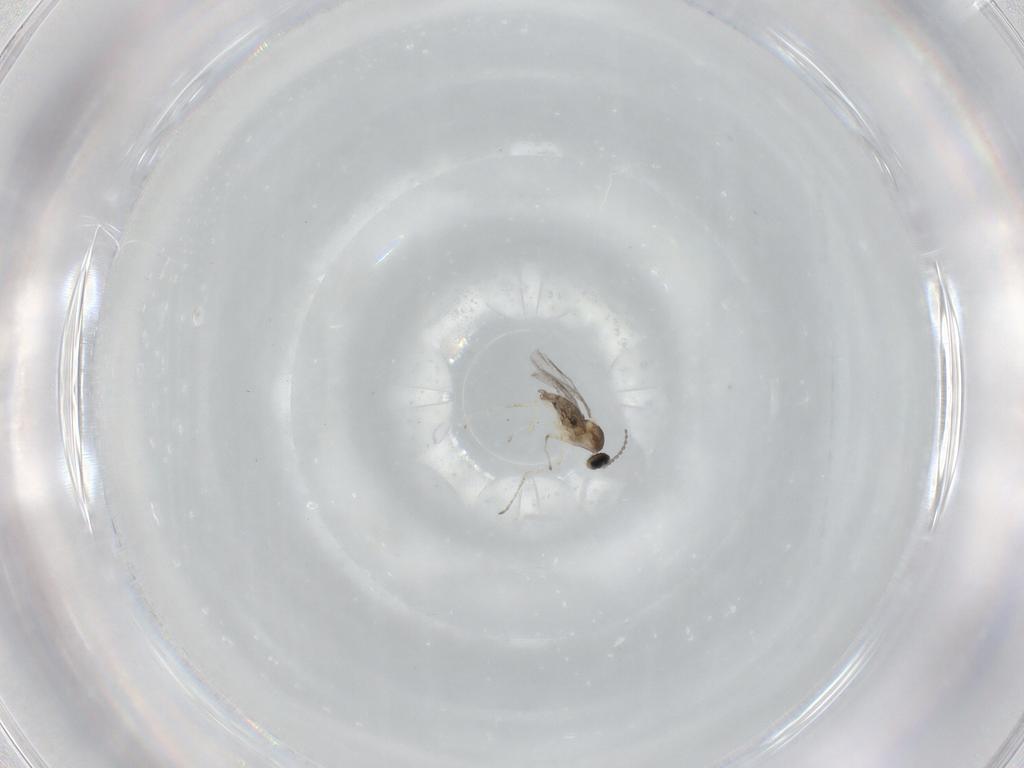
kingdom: Animalia
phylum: Arthropoda
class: Insecta
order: Diptera
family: Cecidomyiidae
